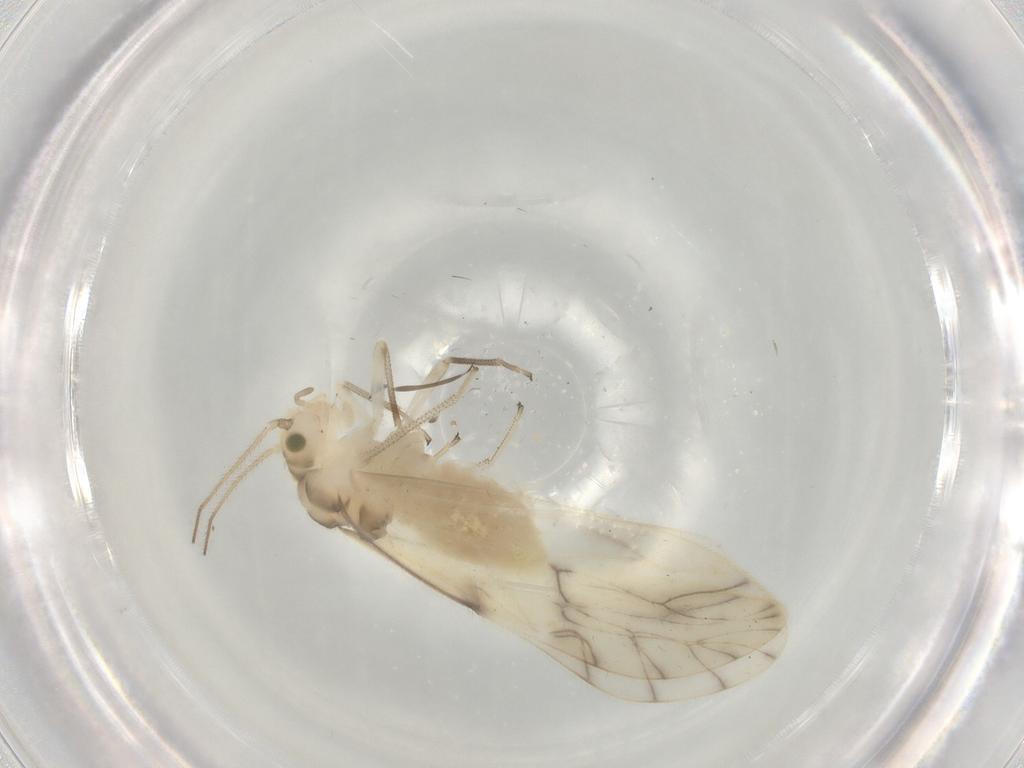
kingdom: Animalia
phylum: Arthropoda
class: Insecta
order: Psocodea
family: Caeciliusidae
